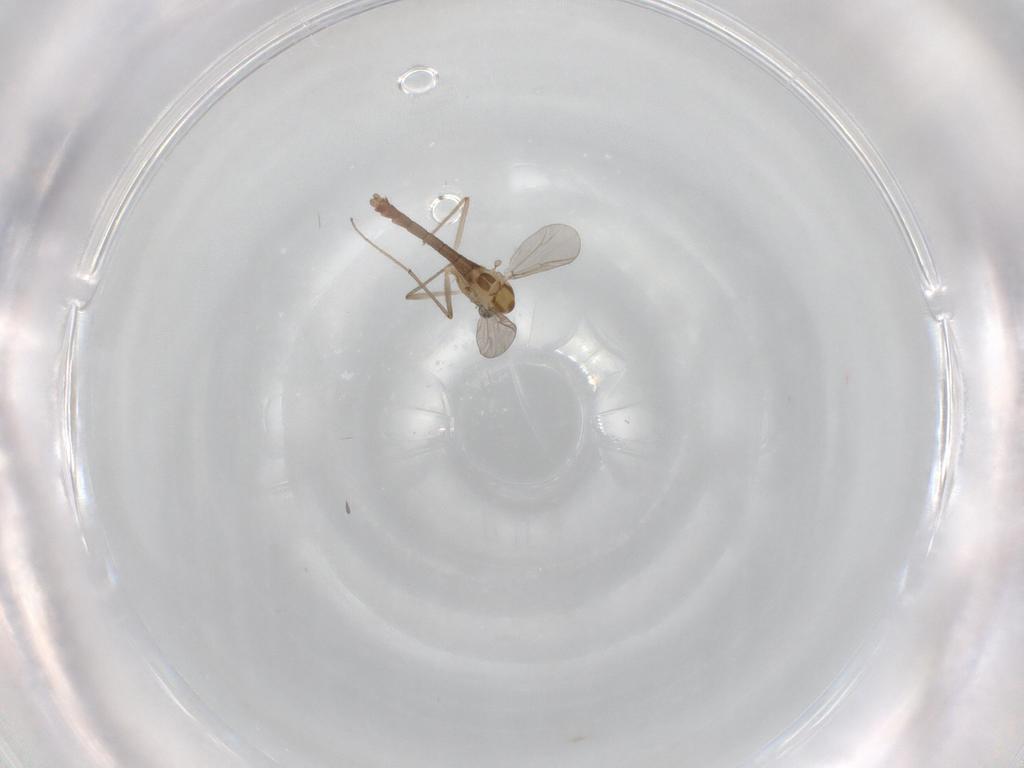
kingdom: Animalia
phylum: Arthropoda
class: Insecta
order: Diptera
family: Chironomidae
